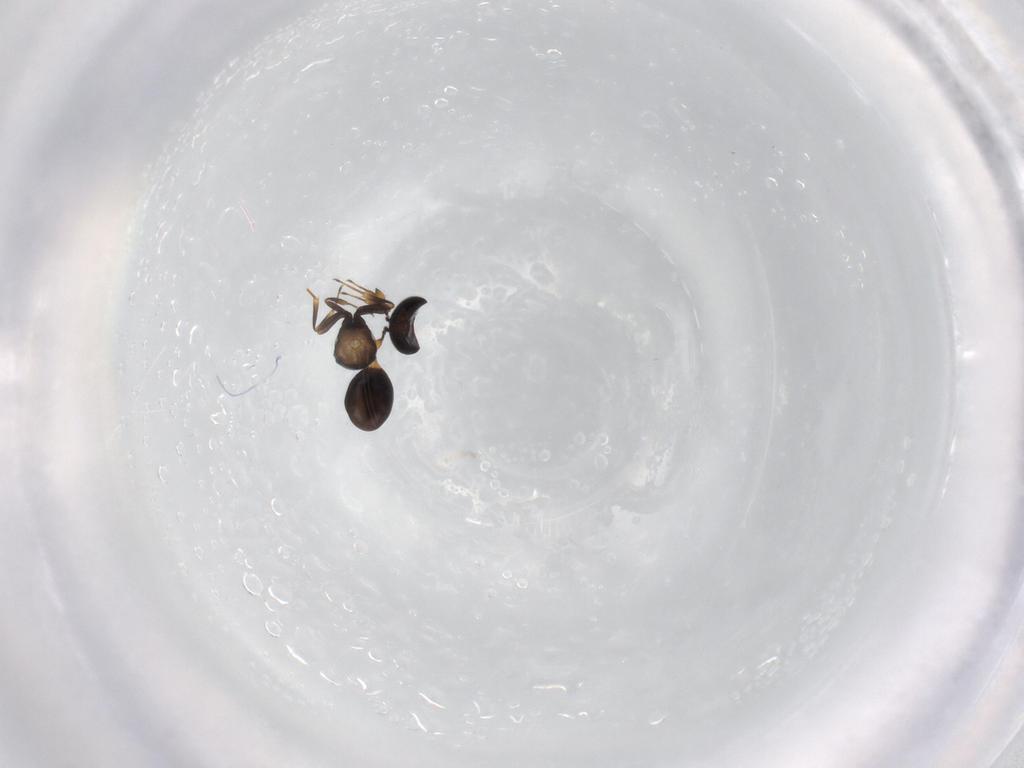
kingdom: Animalia
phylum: Arthropoda
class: Insecta
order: Hymenoptera
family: Scelionidae
